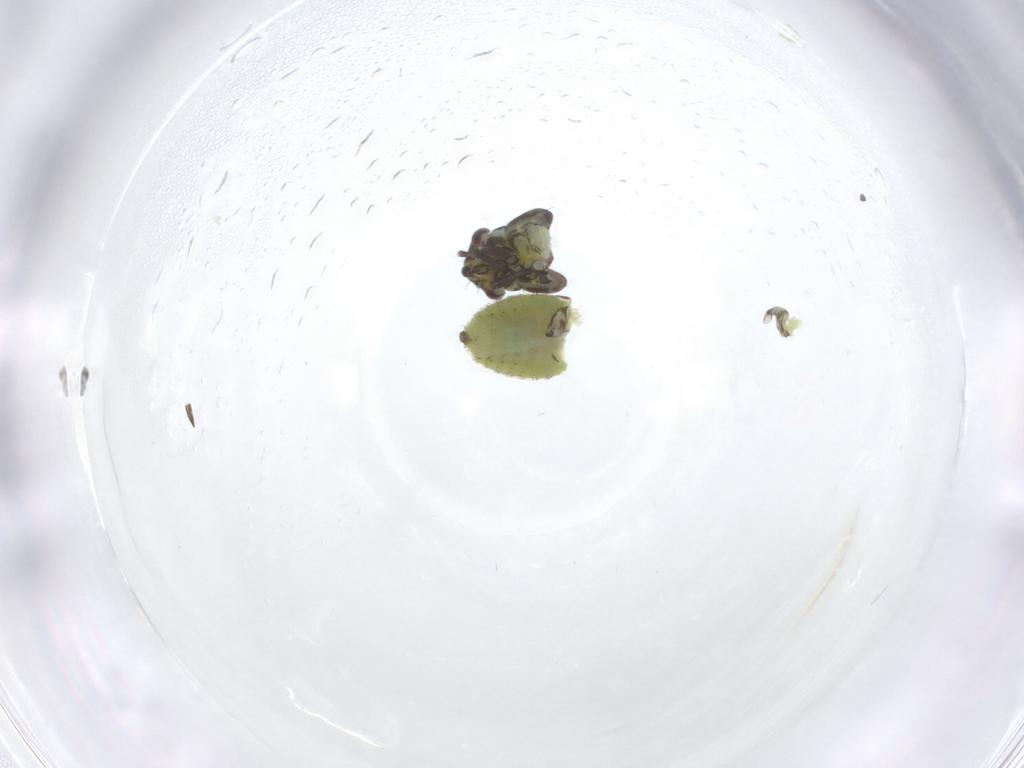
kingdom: Animalia
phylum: Arthropoda
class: Insecta
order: Hemiptera
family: Miridae
